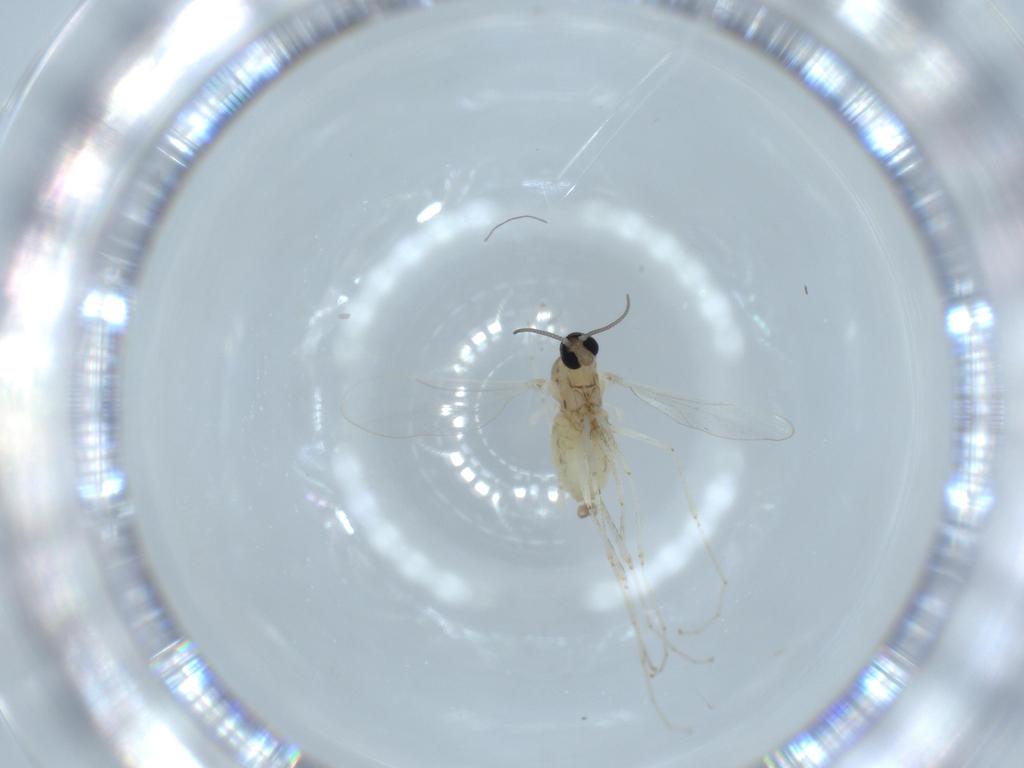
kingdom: Animalia
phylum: Arthropoda
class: Insecta
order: Diptera
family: Cecidomyiidae
